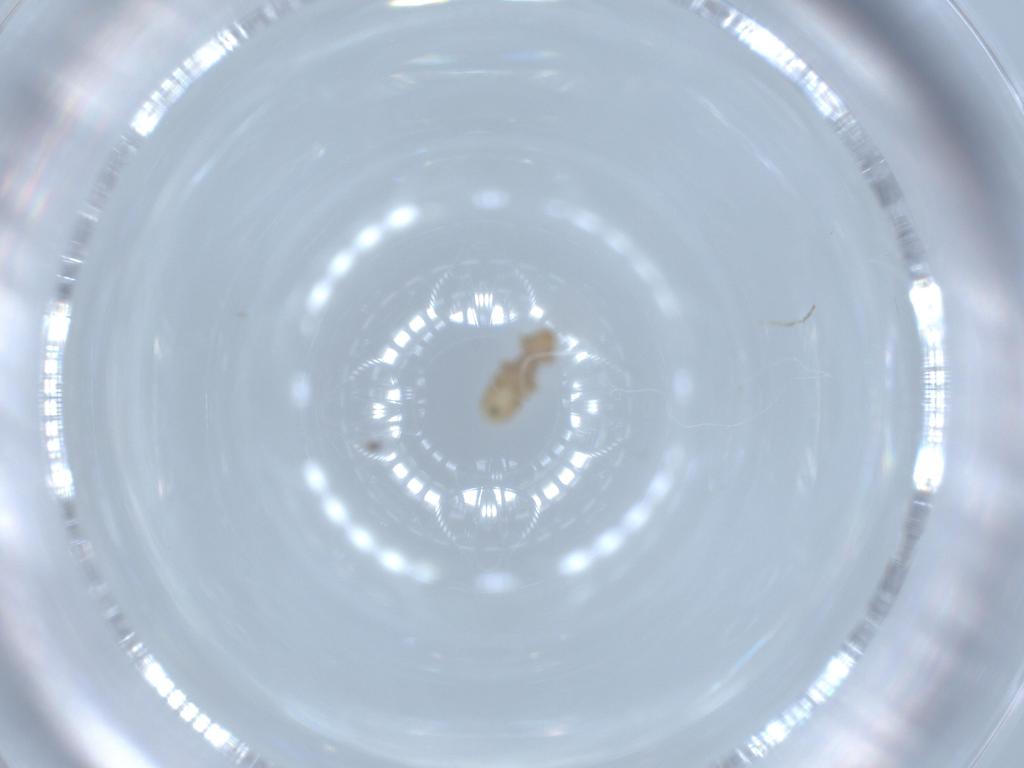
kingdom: Animalia
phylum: Arthropoda
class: Insecta
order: Psocodea
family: Liposcelididae
